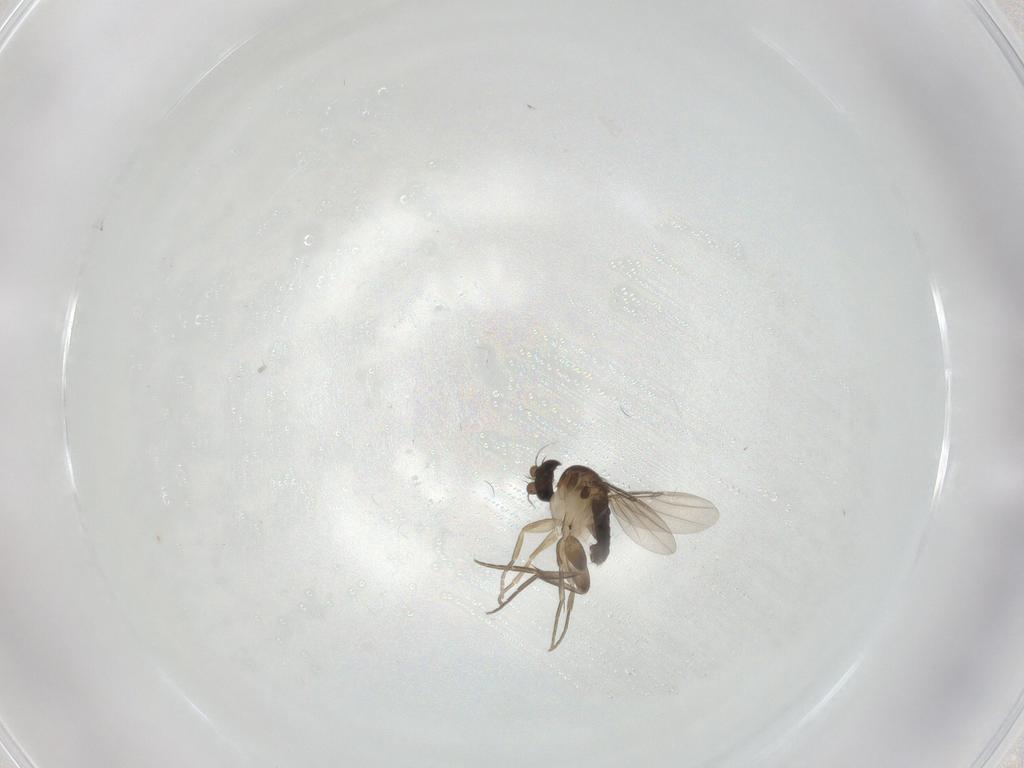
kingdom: Animalia
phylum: Arthropoda
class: Insecta
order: Diptera
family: Phoridae
